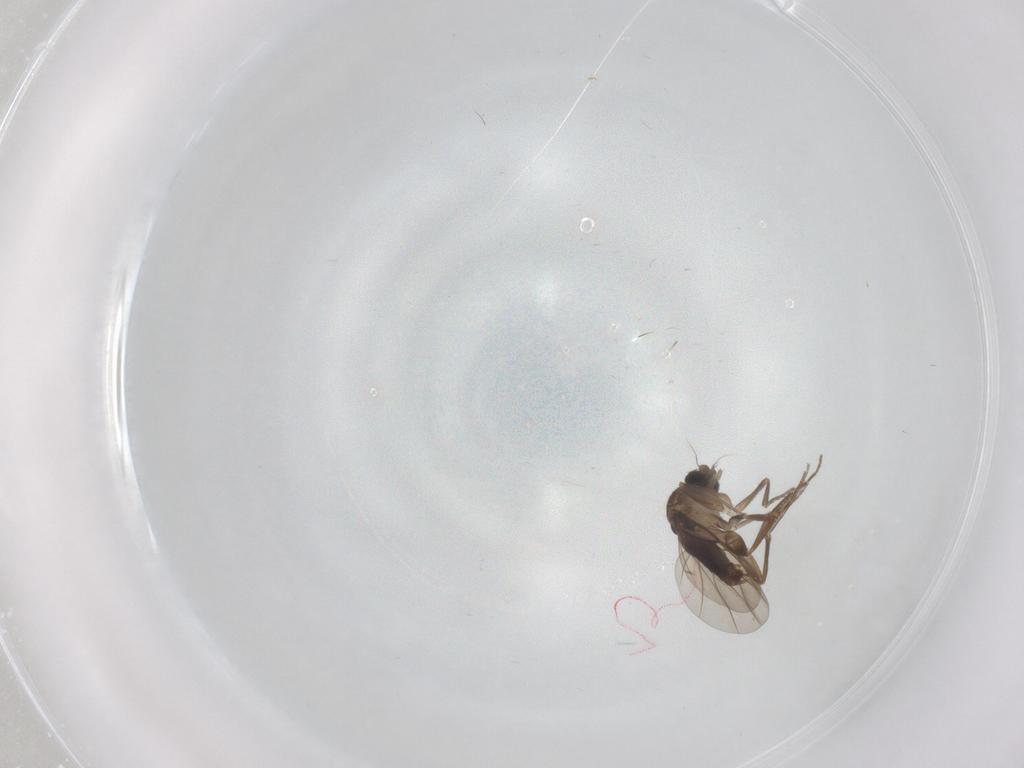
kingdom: Animalia
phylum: Arthropoda
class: Insecta
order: Diptera
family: Phoridae
